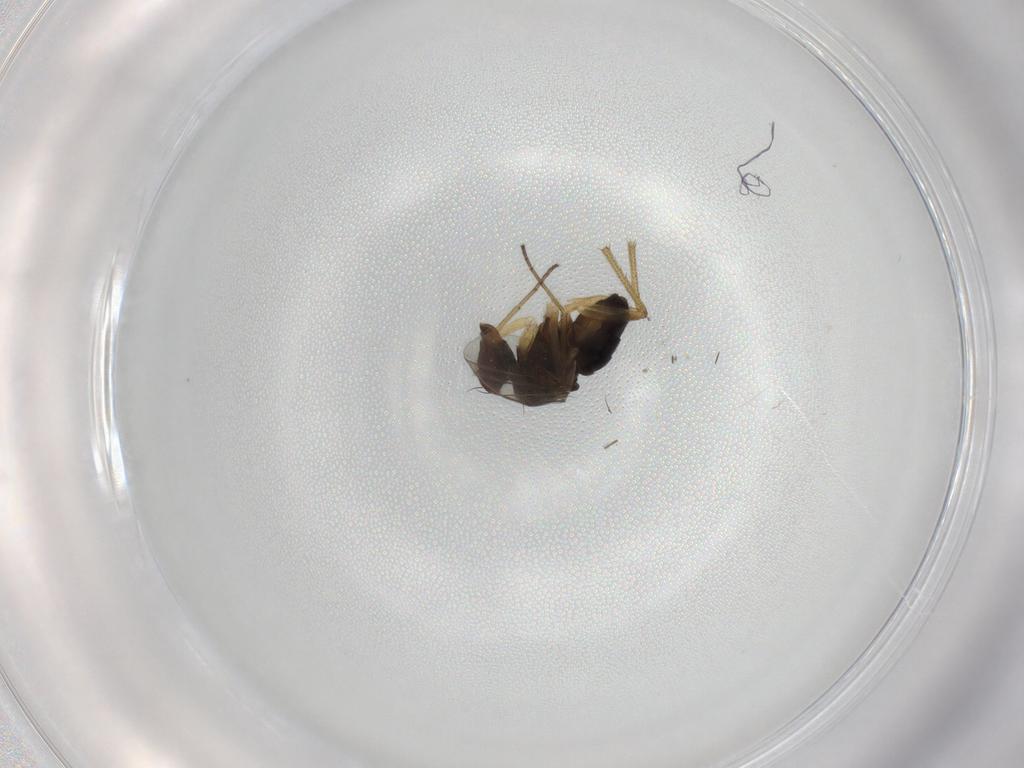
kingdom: Animalia
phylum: Arthropoda
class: Insecta
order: Diptera
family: Dolichopodidae
